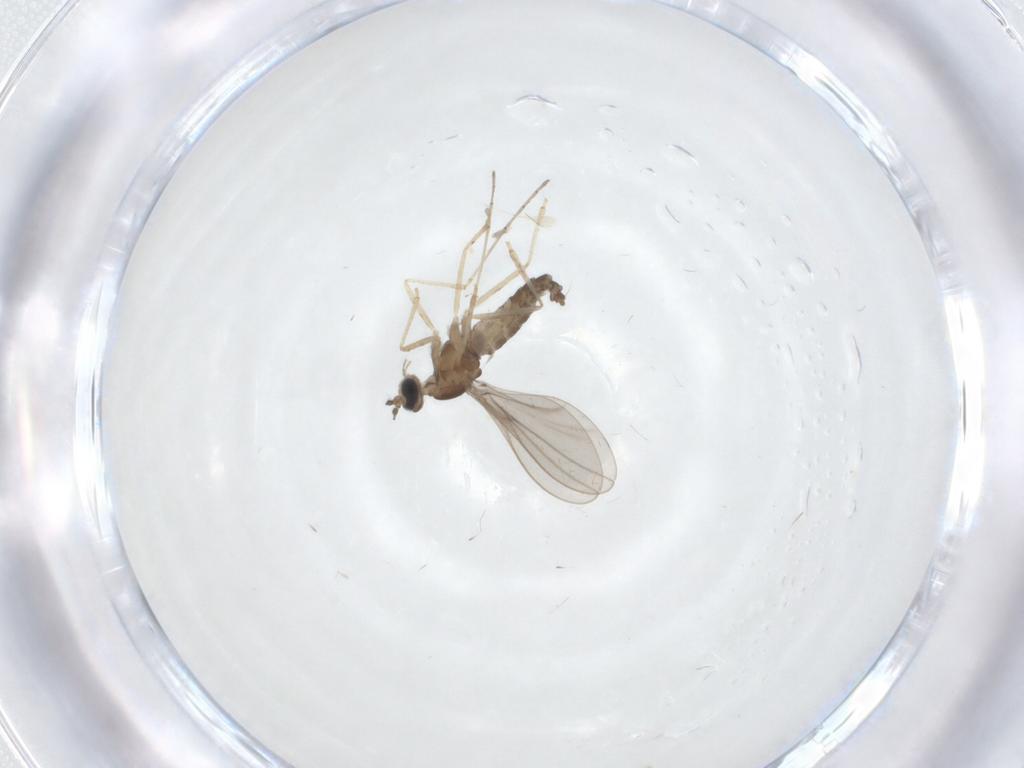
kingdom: Animalia
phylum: Arthropoda
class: Insecta
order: Diptera
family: Cecidomyiidae
